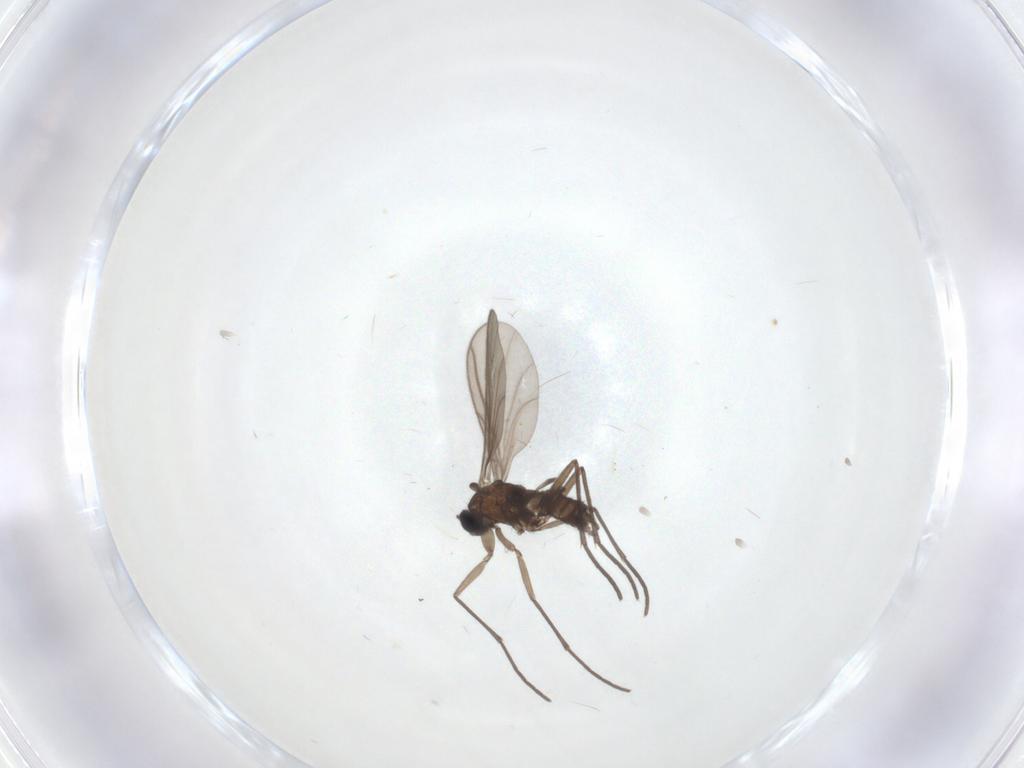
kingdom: Animalia
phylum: Arthropoda
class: Insecta
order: Diptera
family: Sciaridae
